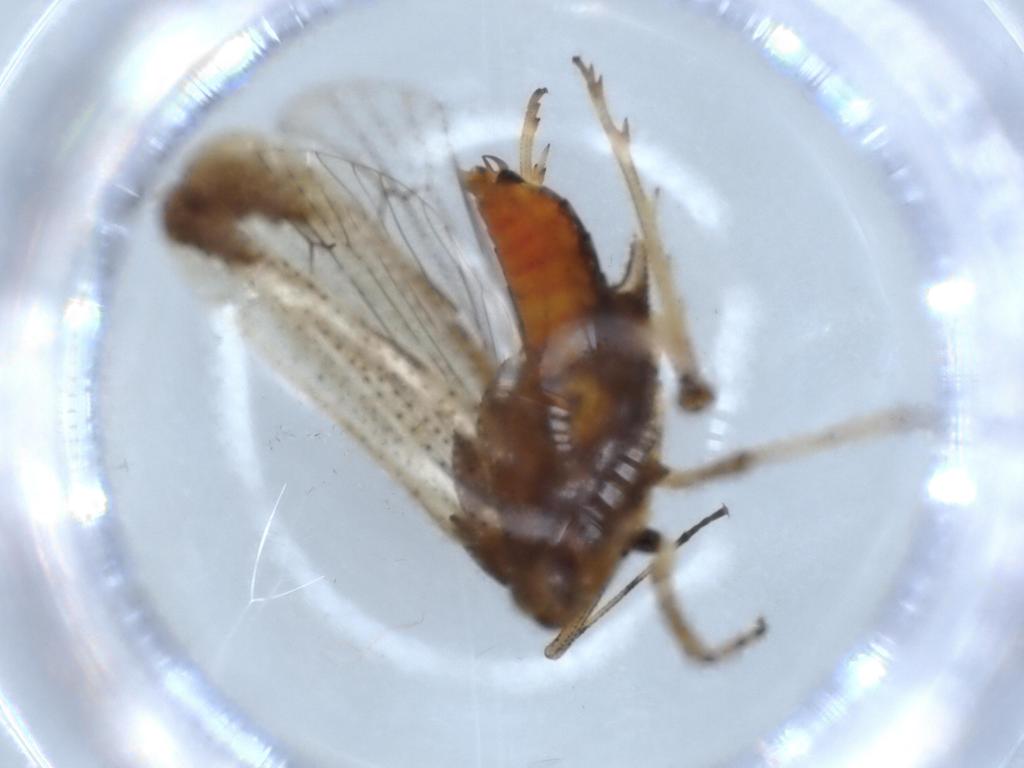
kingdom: Animalia
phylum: Arthropoda
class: Insecta
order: Hemiptera
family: Delphacidae
